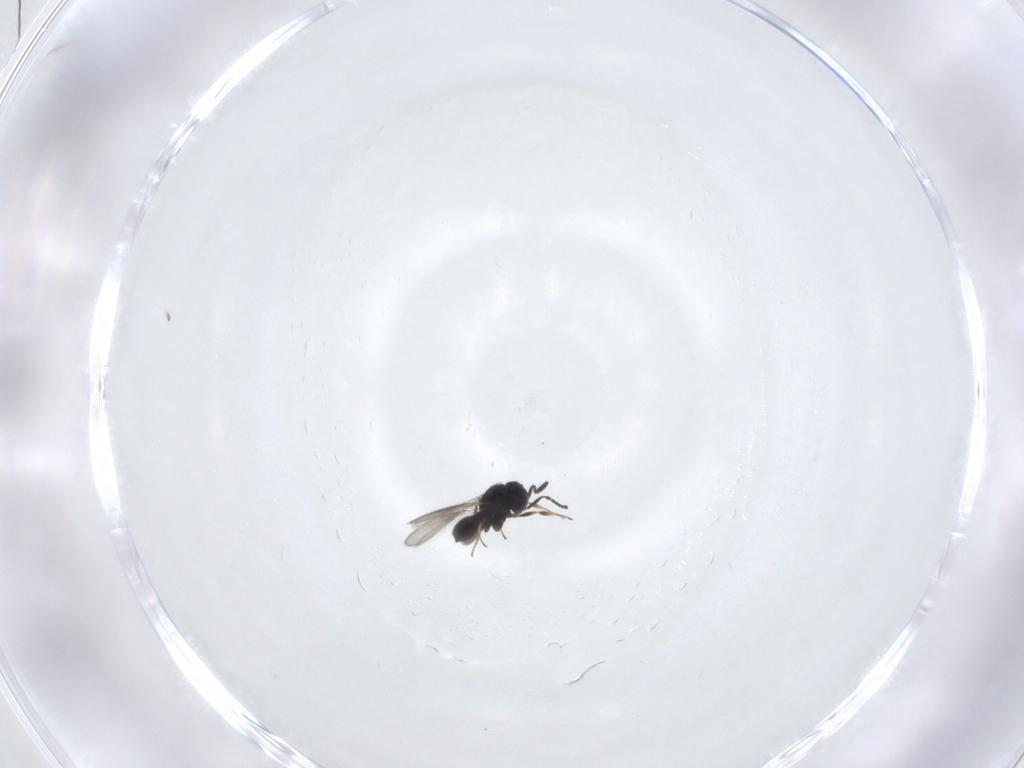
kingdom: Animalia
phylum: Arthropoda
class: Insecta
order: Hymenoptera
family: Scelionidae
